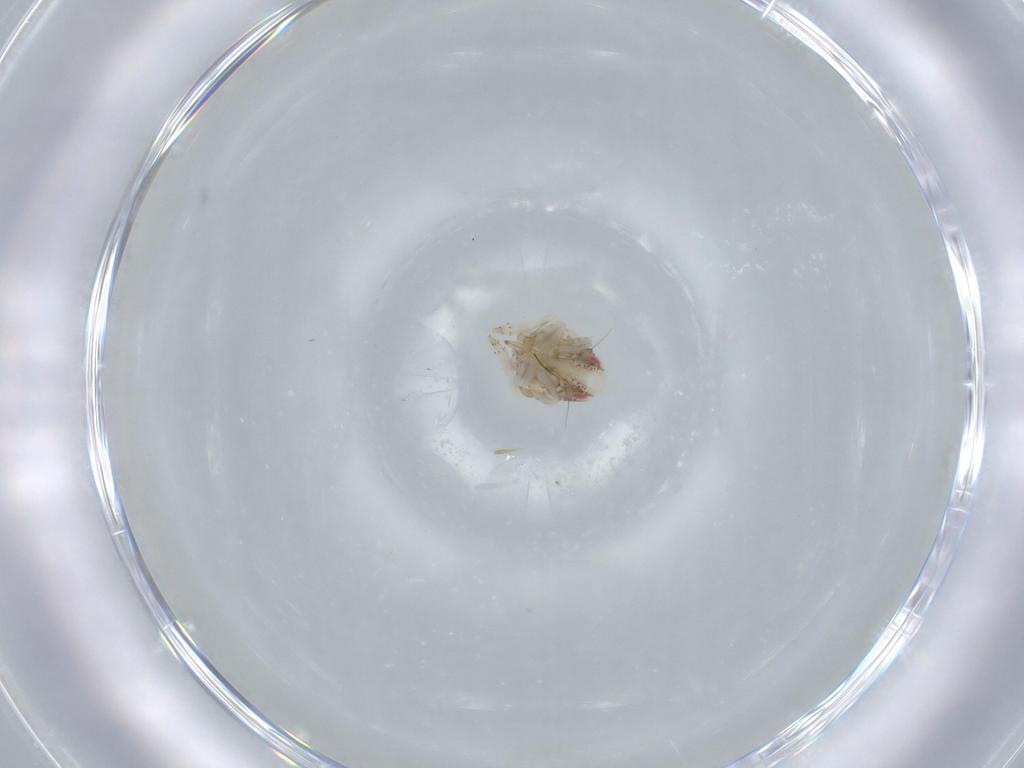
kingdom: Animalia
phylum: Arthropoda
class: Insecta
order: Hemiptera
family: Acanaloniidae
